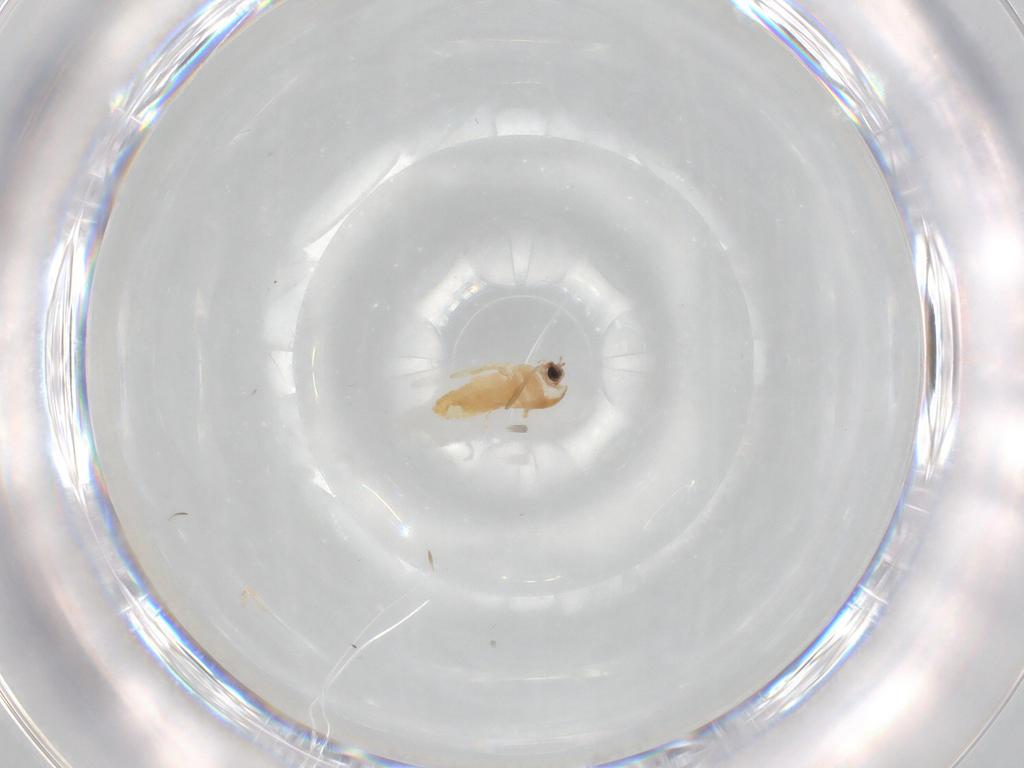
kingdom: Animalia
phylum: Arthropoda
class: Insecta
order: Diptera
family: Chironomidae
